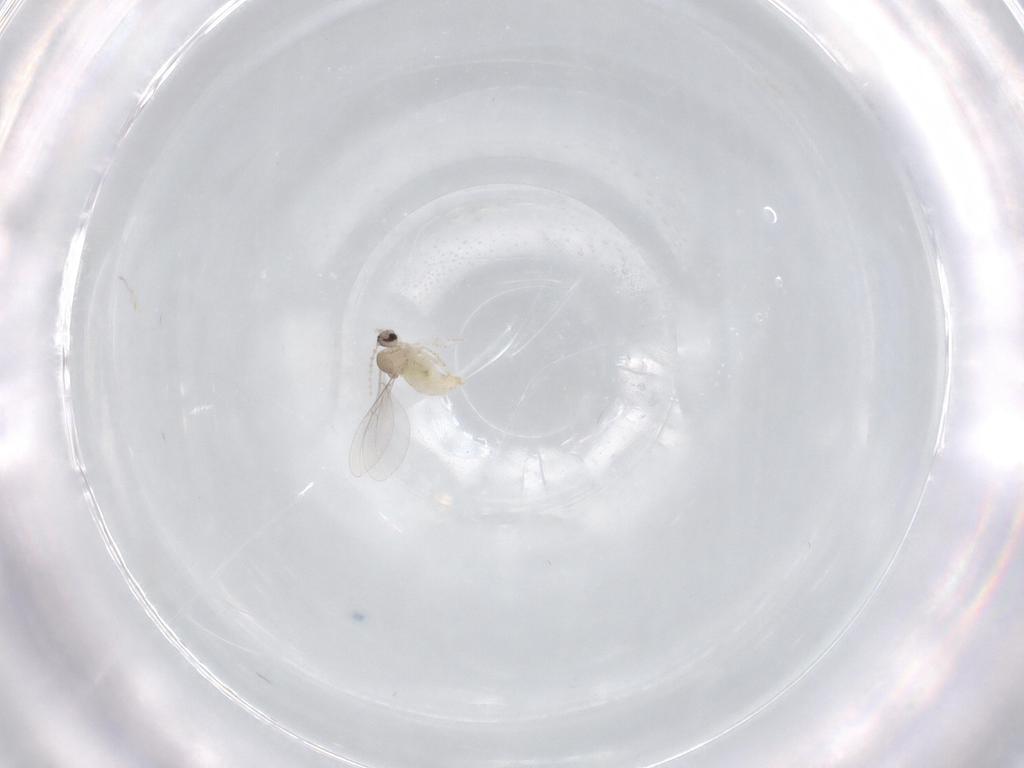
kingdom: Animalia
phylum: Arthropoda
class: Insecta
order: Diptera
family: Cecidomyiidae
